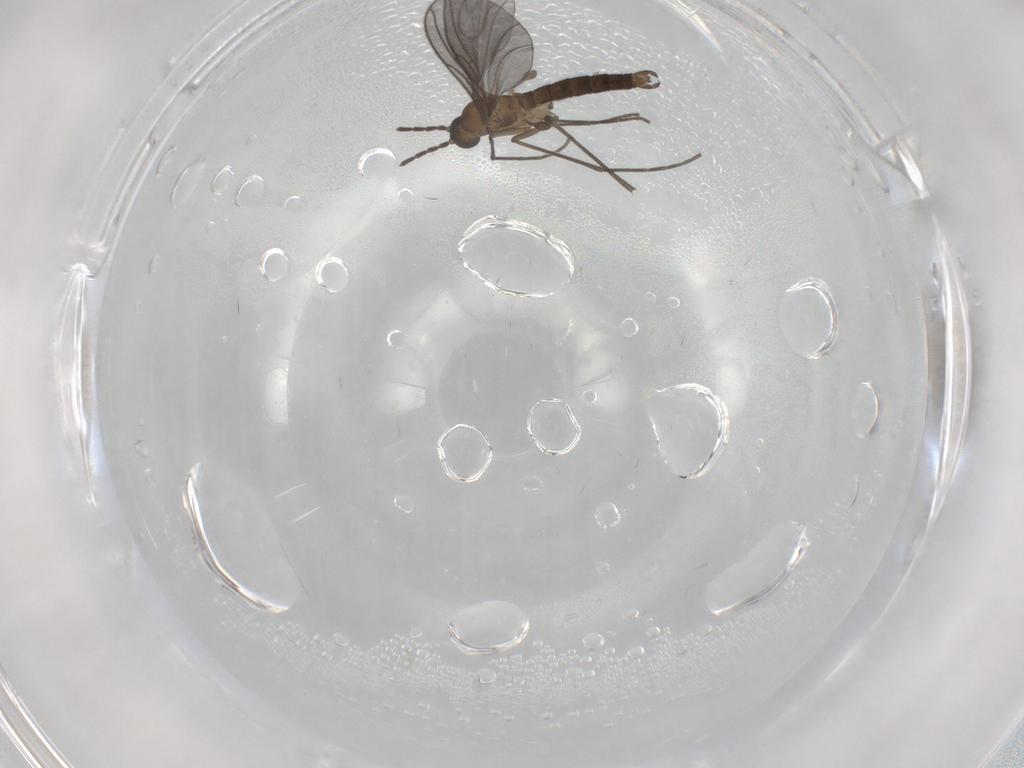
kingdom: Animalia
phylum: Arthropoda
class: Insecta
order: Diptera
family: Sciaridae
